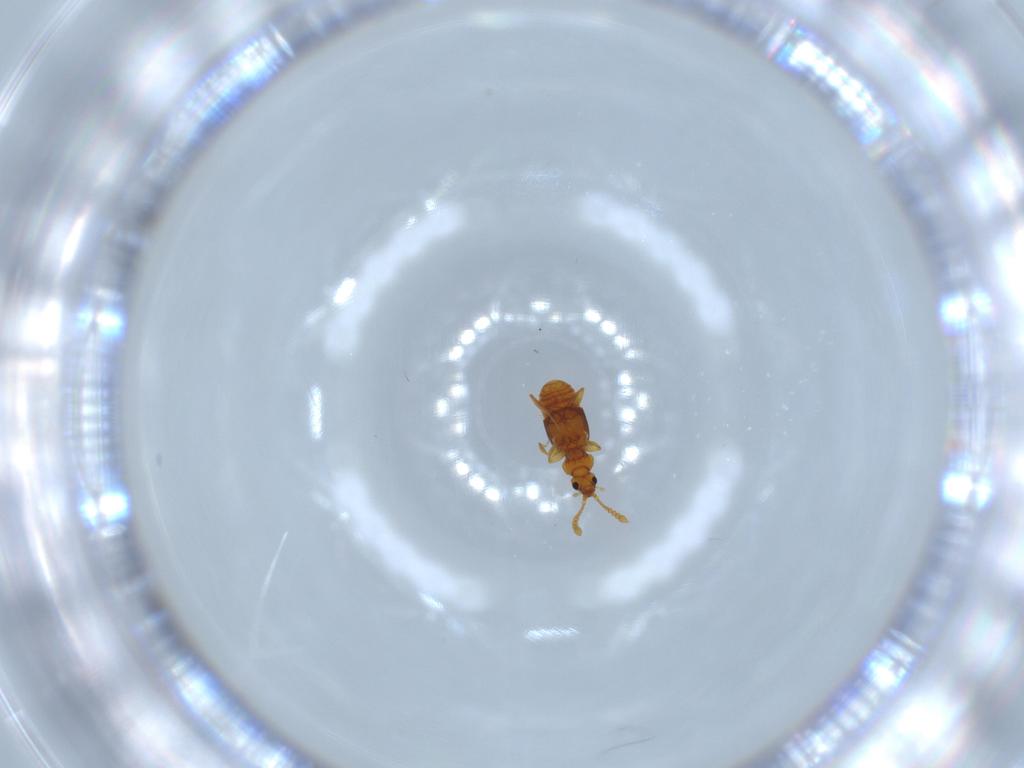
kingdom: Animalia
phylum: Arthropoda
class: Insecta
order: Coleoptera
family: Staphylinidae
